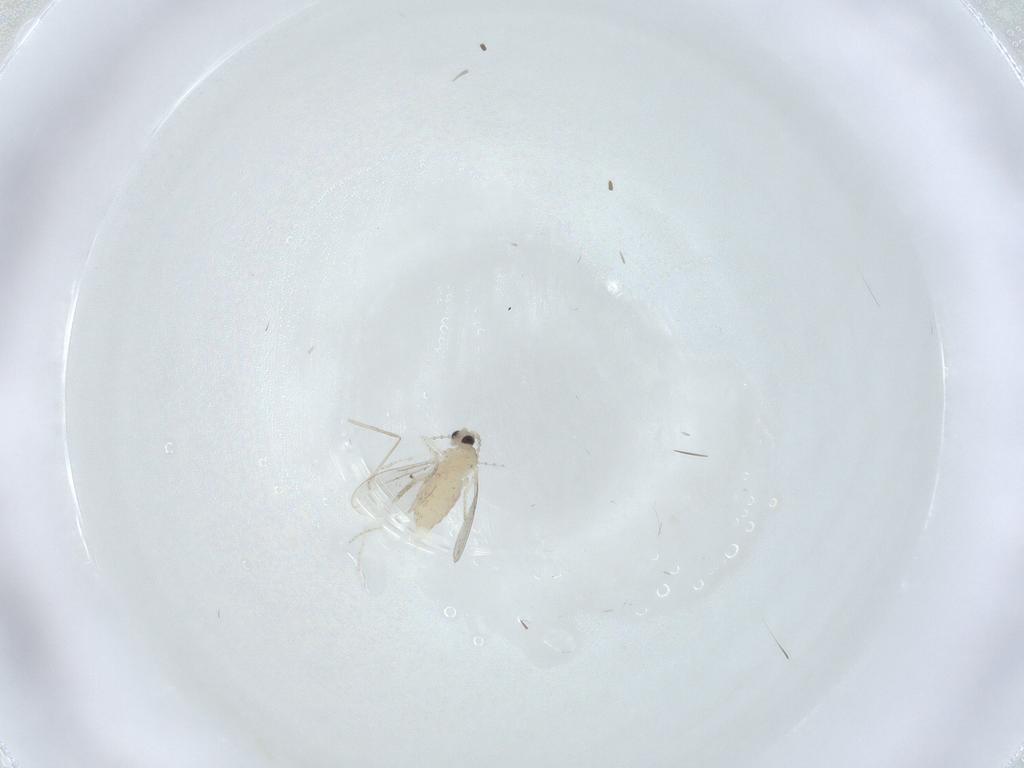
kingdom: Animalia
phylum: Arthropoda
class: Insecta
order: Diptera
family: Cecidomyiidae
